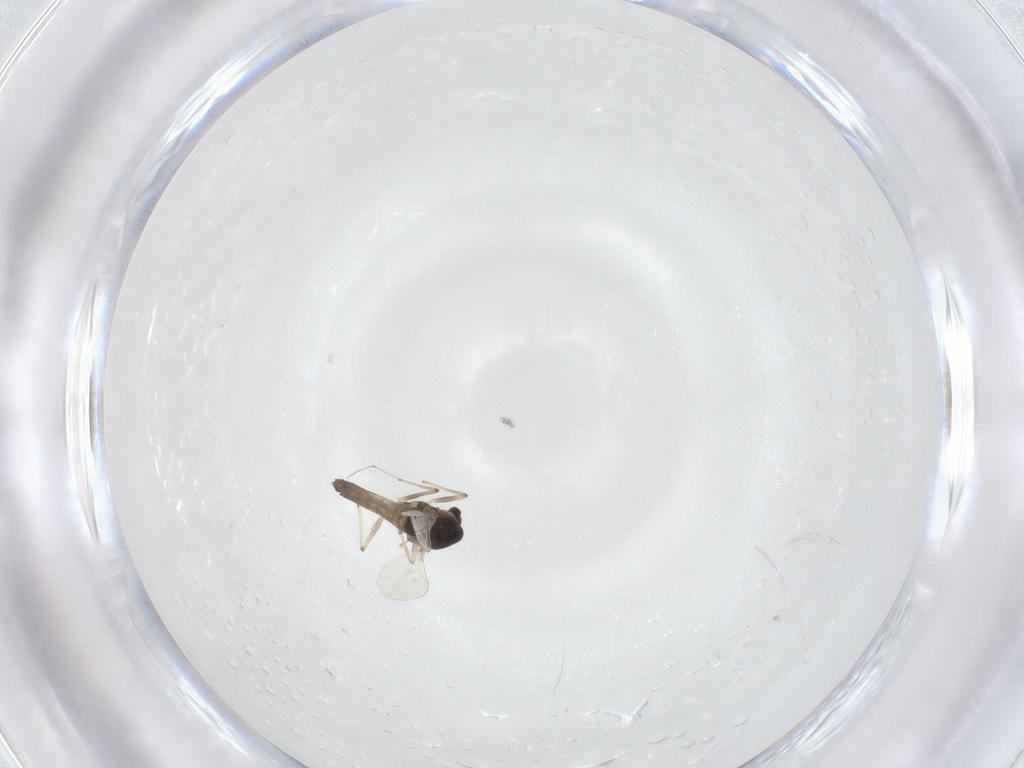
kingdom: Animalia
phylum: Arthropoda
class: Insecta
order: Diptera
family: Chironomidae
